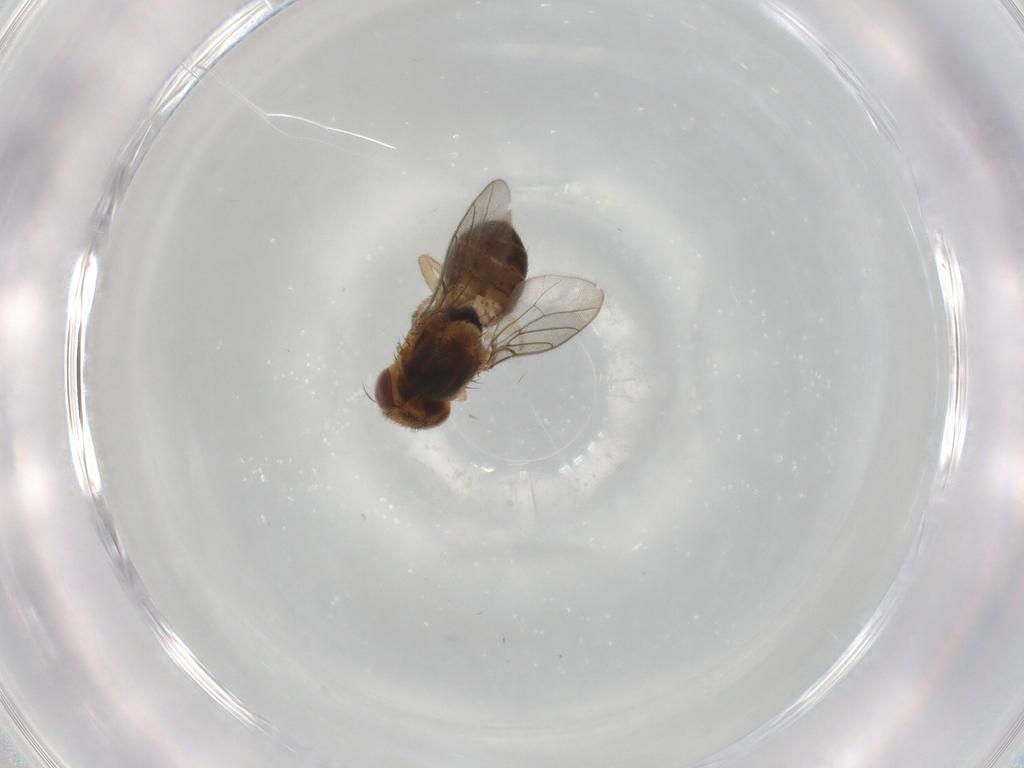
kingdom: Animalia
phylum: Arthropoda
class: Insecta
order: Diptera
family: Chloropidae
